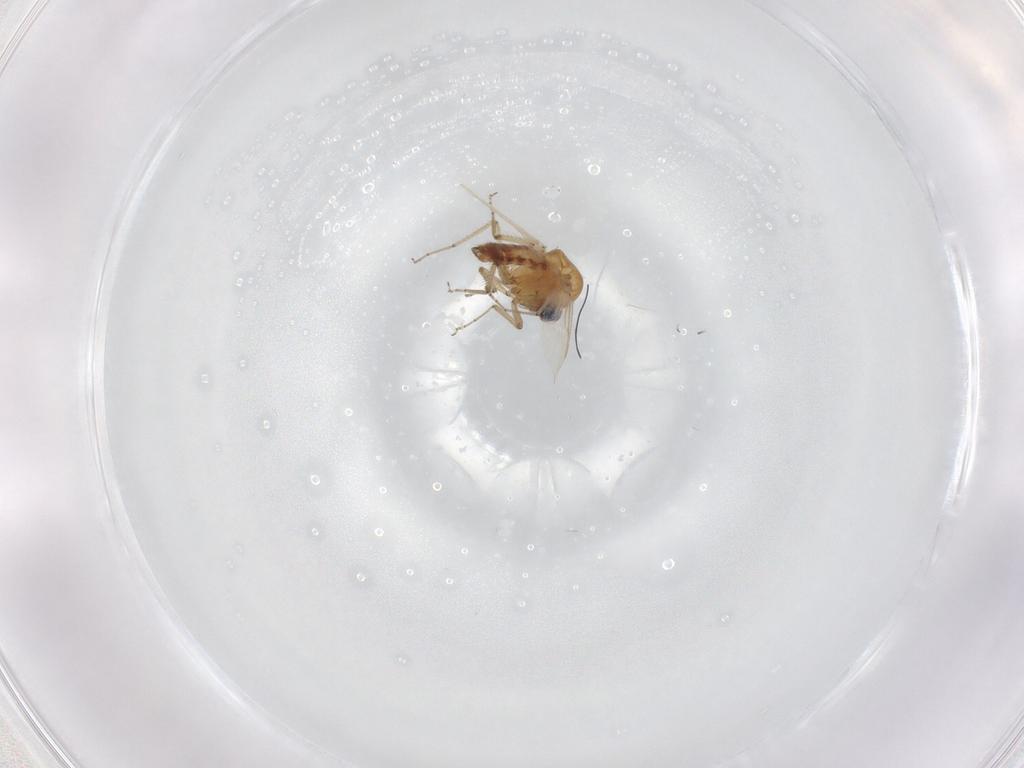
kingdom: Animalia
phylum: Arthropoda
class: Insecta
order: Diptera
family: Ceratopogonidae
